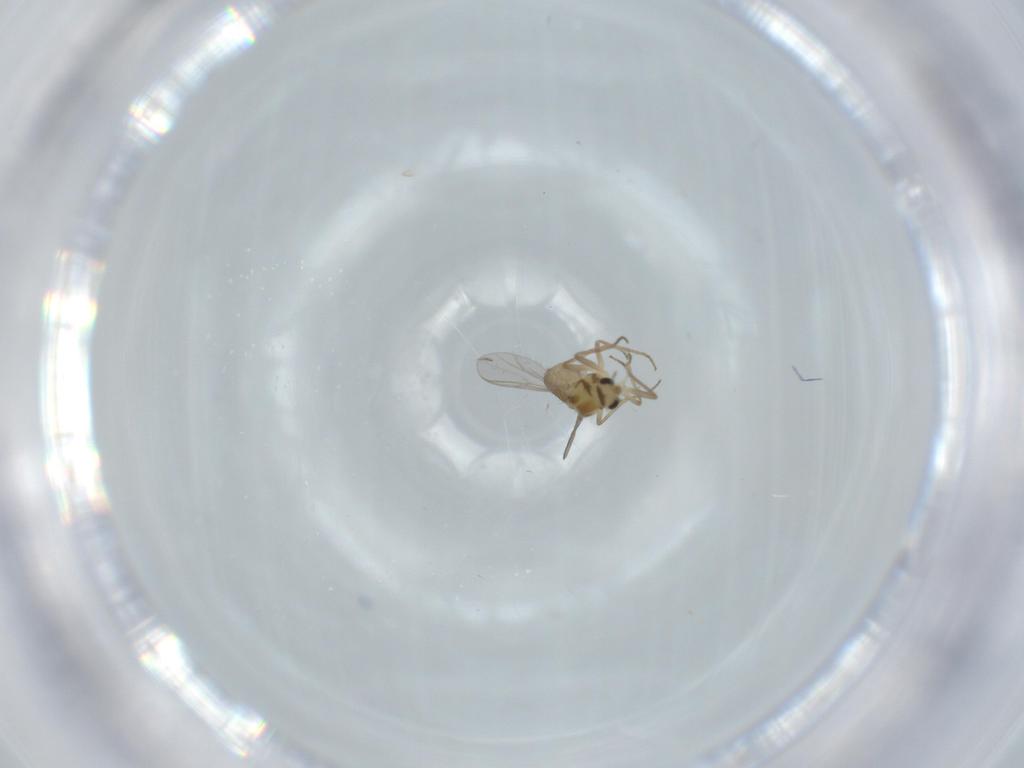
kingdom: Animalia
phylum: Arthropoda
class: Insecta
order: Diptera
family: Chironomidae
